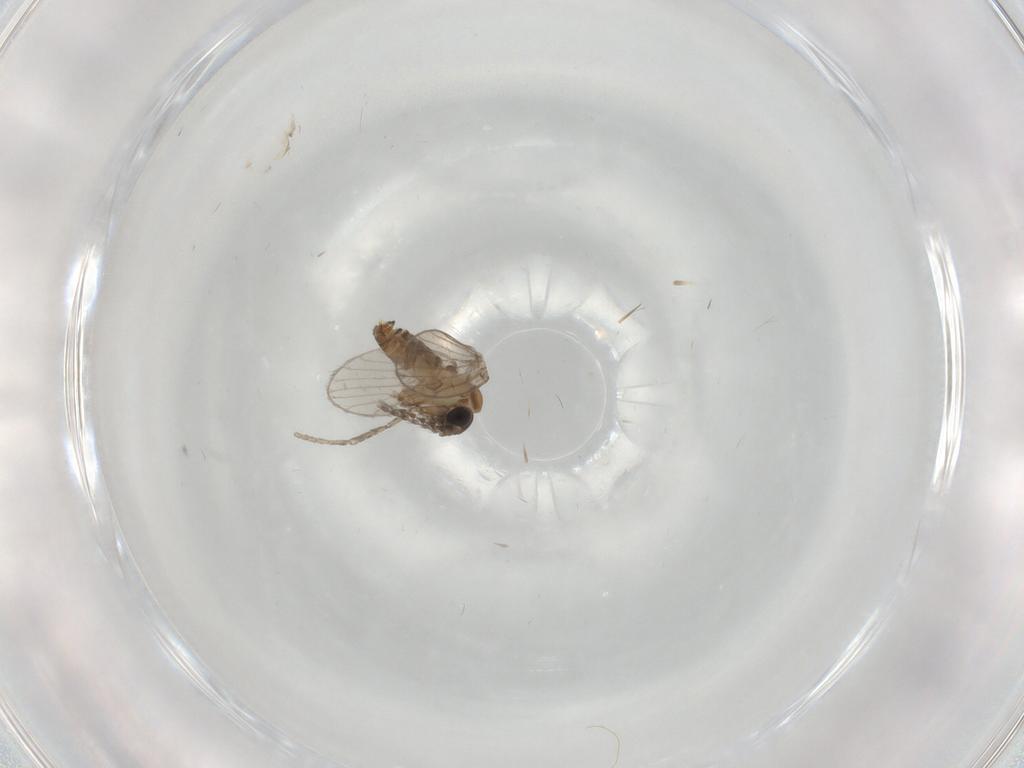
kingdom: Animalia
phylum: Arthropoda
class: Insecta
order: Diptera
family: Psychodidae
